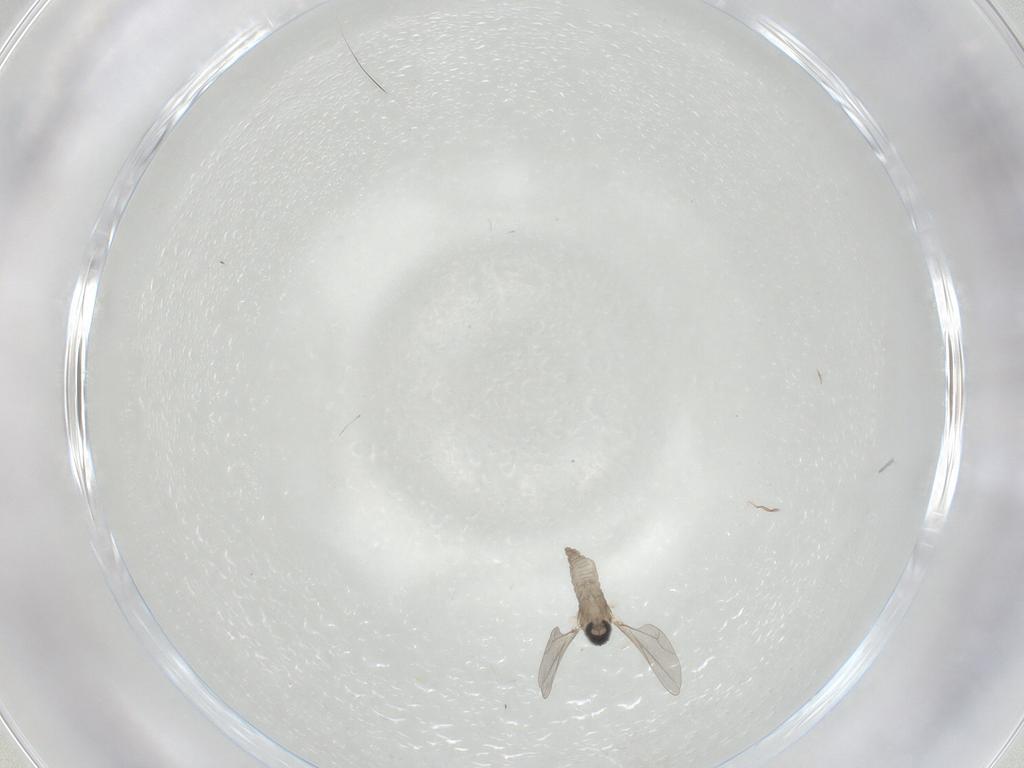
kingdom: Animalia
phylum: Arthropoda
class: Insecta
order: Diptera
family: Cecidomyiidae
